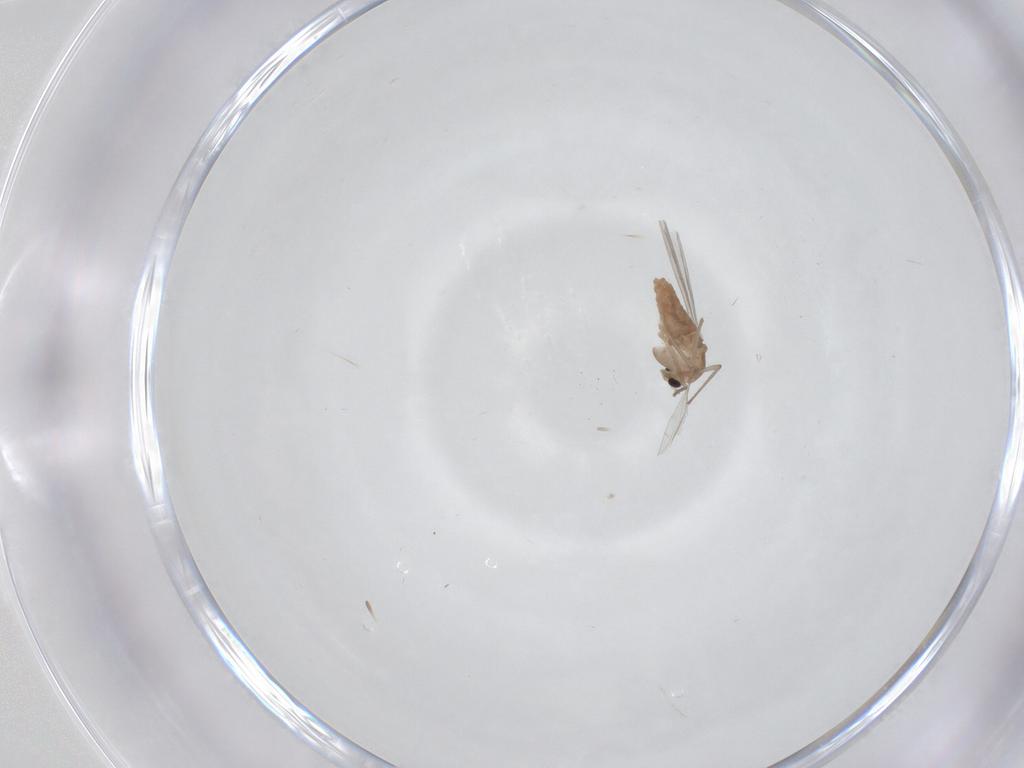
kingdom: Animalia
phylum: Arthropoda
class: Insecta
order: Diptera
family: Chironomidae
